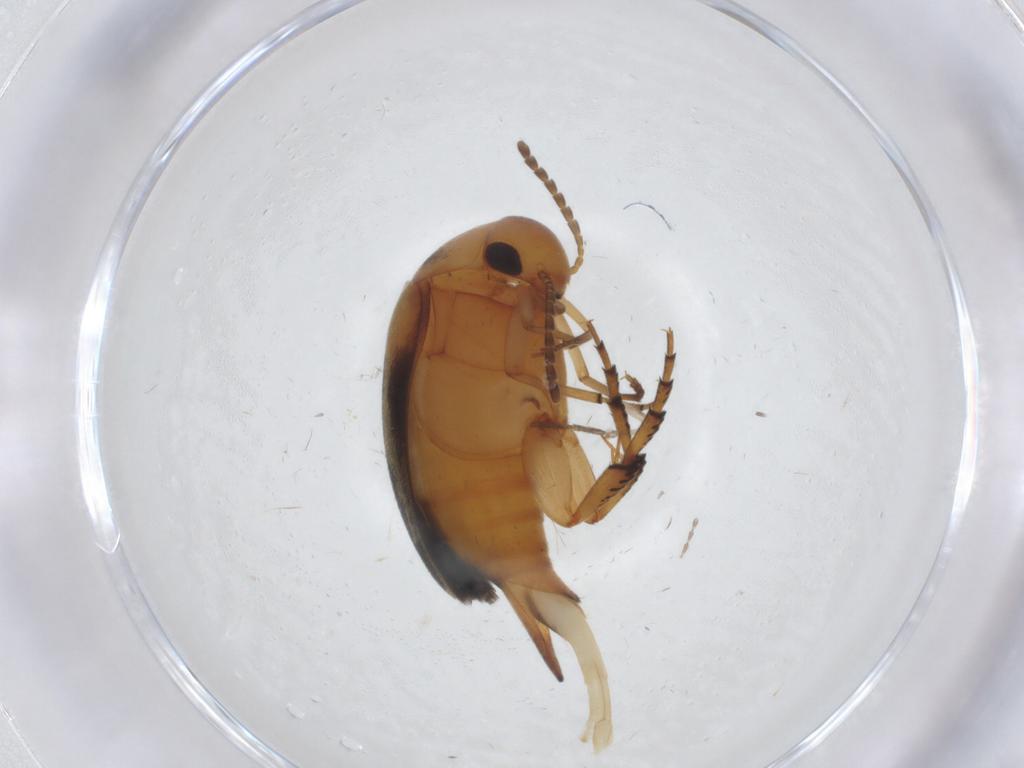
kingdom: Animalia
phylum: Arthropoda
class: Insecta
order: Coleoptera
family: Mordellidae
